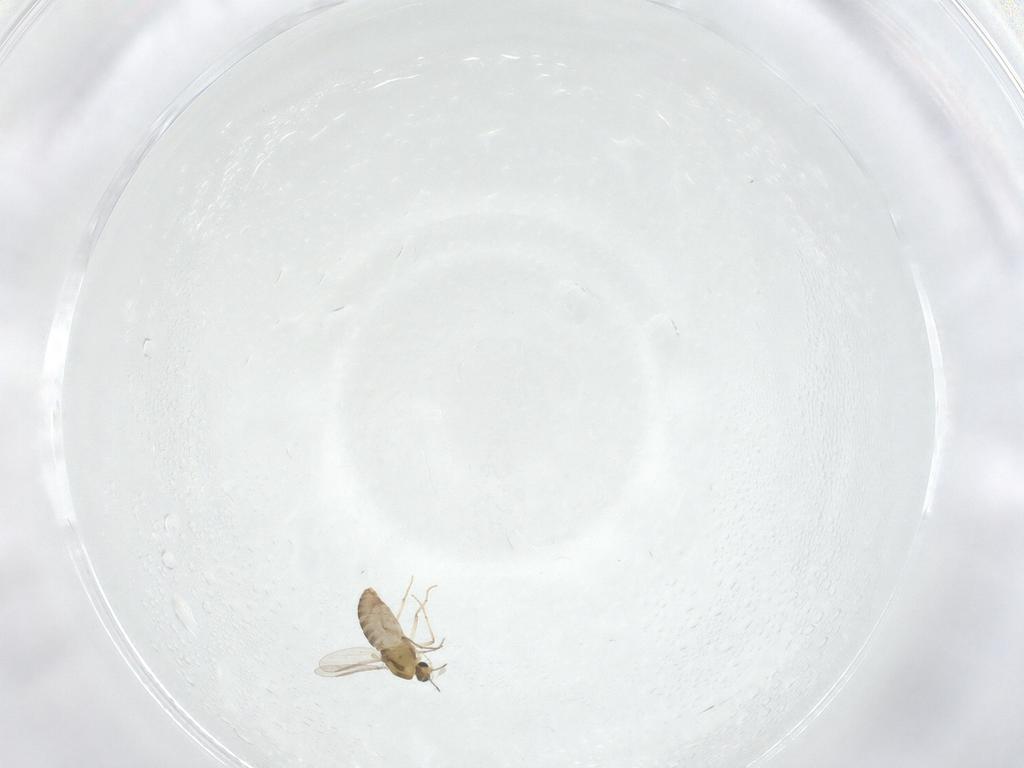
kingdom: Animalia
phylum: Arthropoda
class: Insecta
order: Diptera
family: Chironomidae
